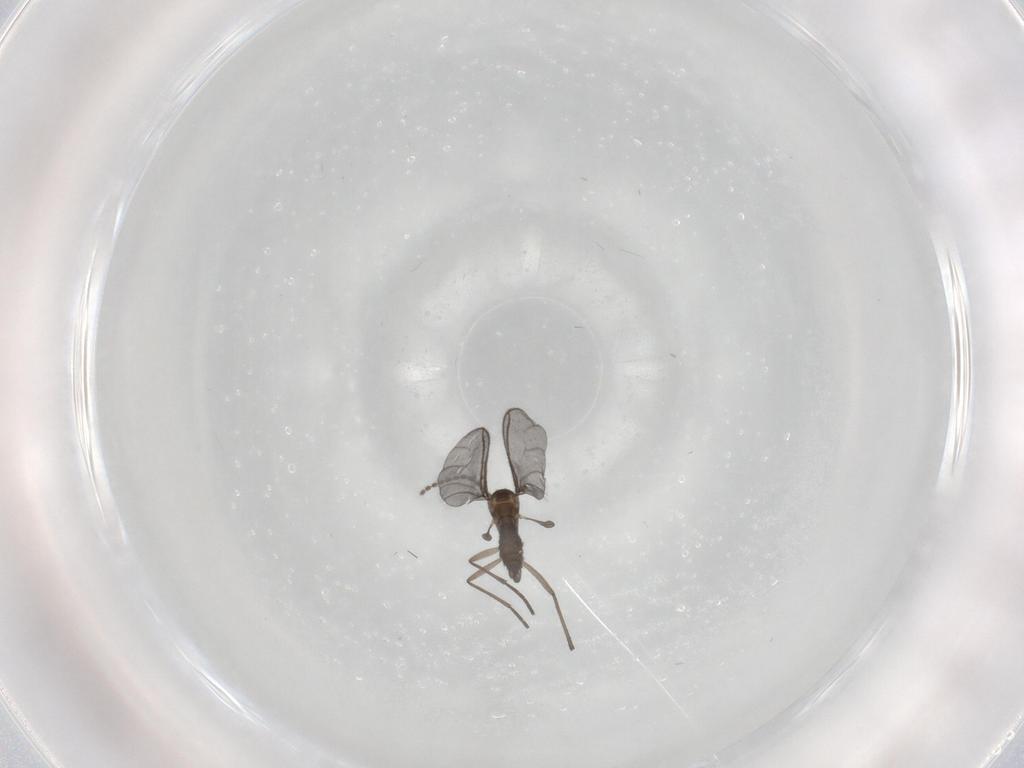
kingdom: Animalia
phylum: Arthropoda
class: Insecta
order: Diptera
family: Sciaridae
